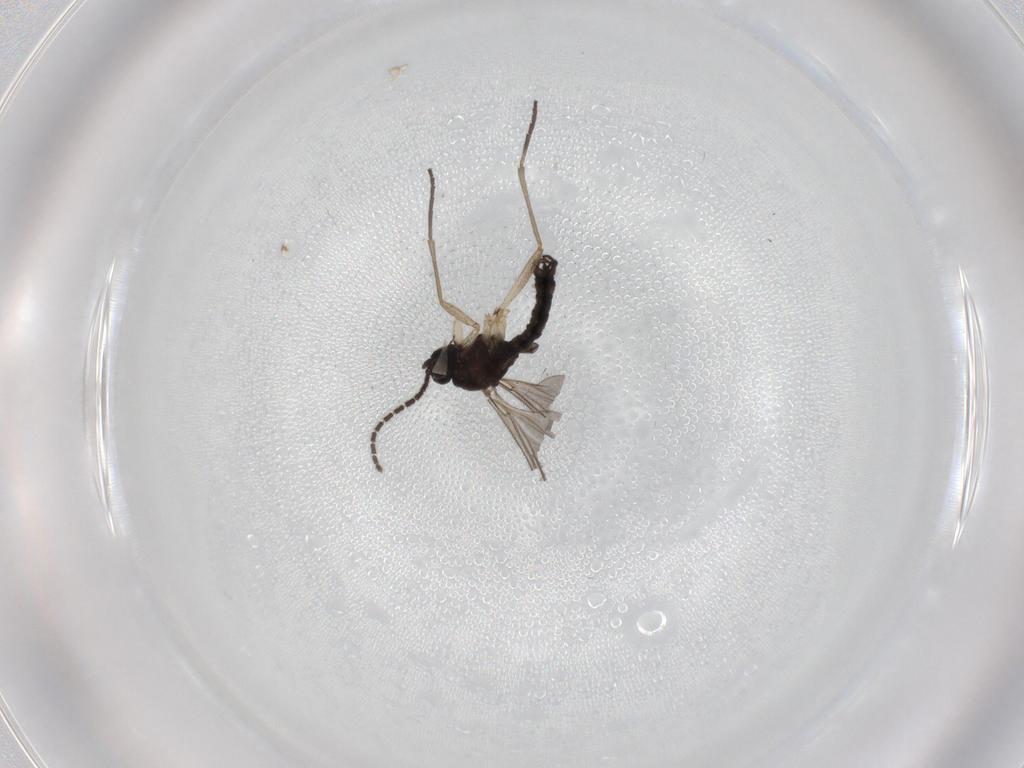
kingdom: Animalia
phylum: Arthropoda
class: Insecta
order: Diptera
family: Sciaridae
